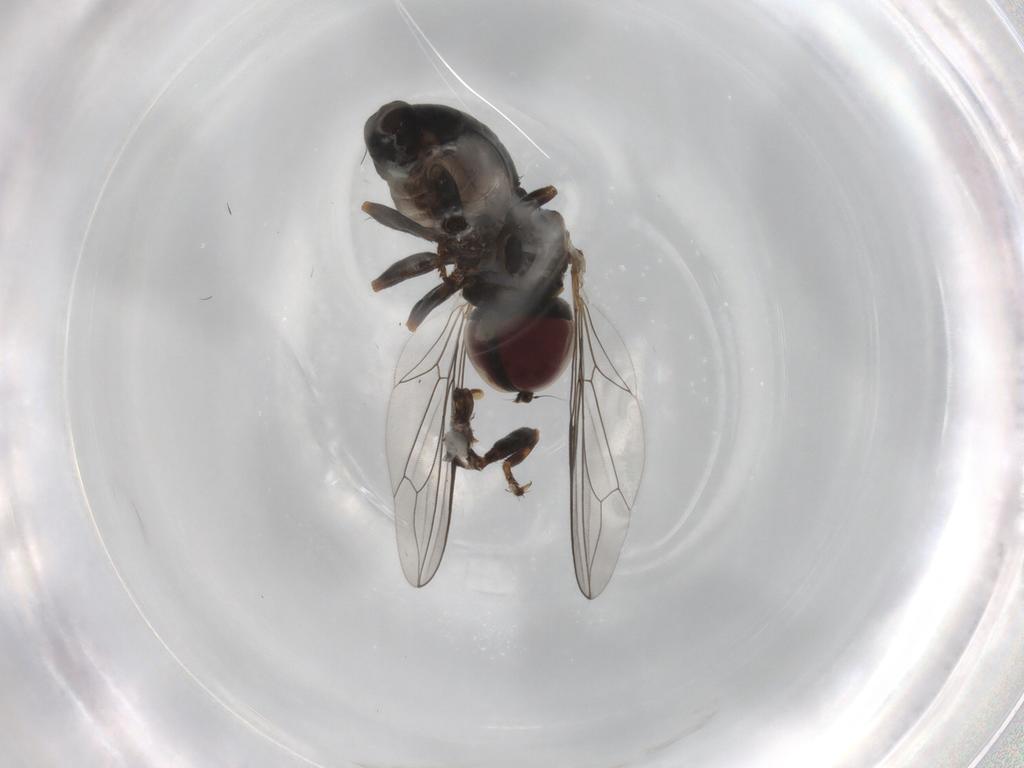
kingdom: Animalia
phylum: Arthropoda
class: Insecta
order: Diptera
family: Pipunculidae
